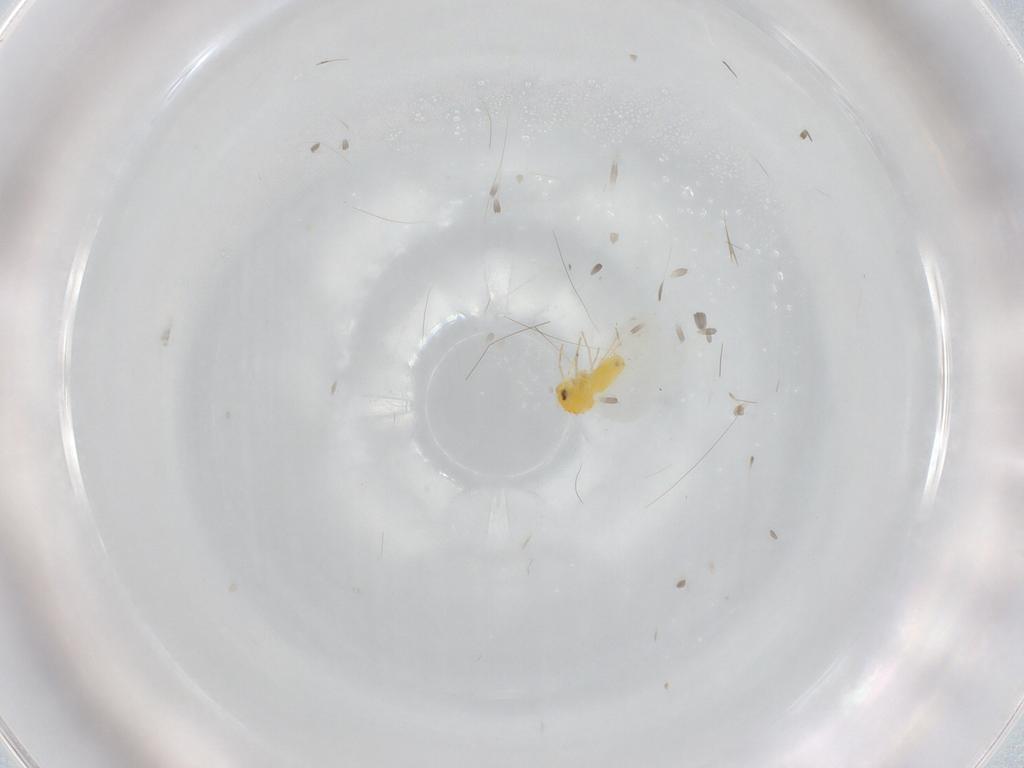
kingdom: Animalia
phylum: Arthropoda
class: Insecta
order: Hemiptera
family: Aleyrodidae
